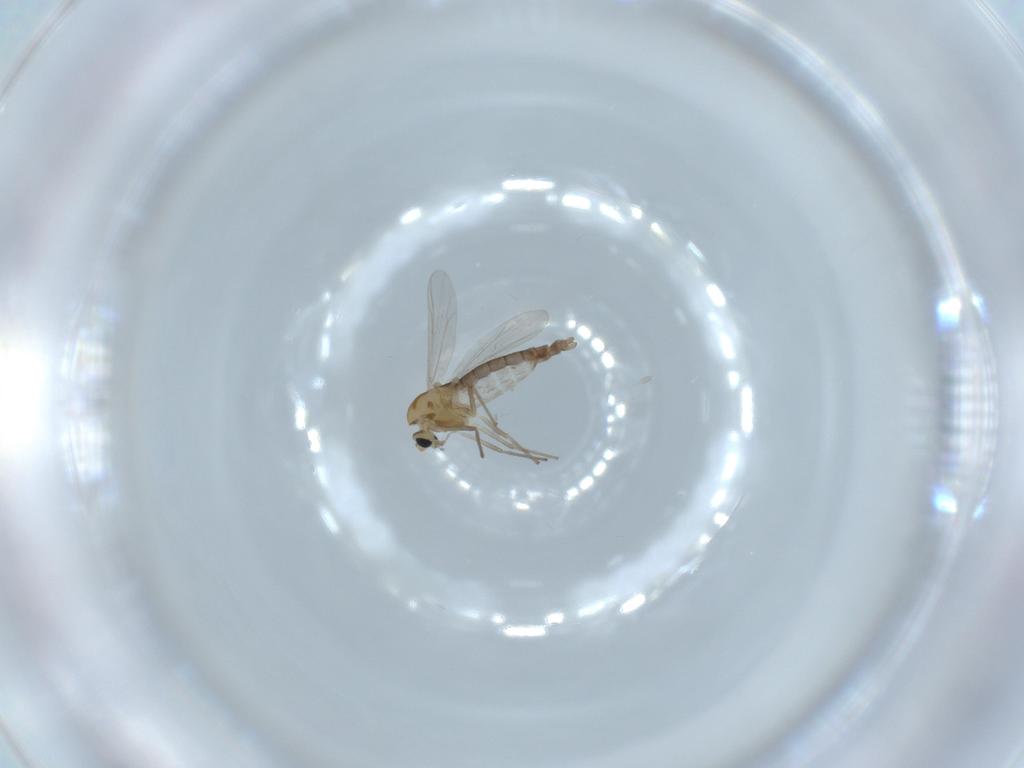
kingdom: Animalia
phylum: Arthropoda
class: Insecta
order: Diptera
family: Chironomidae
